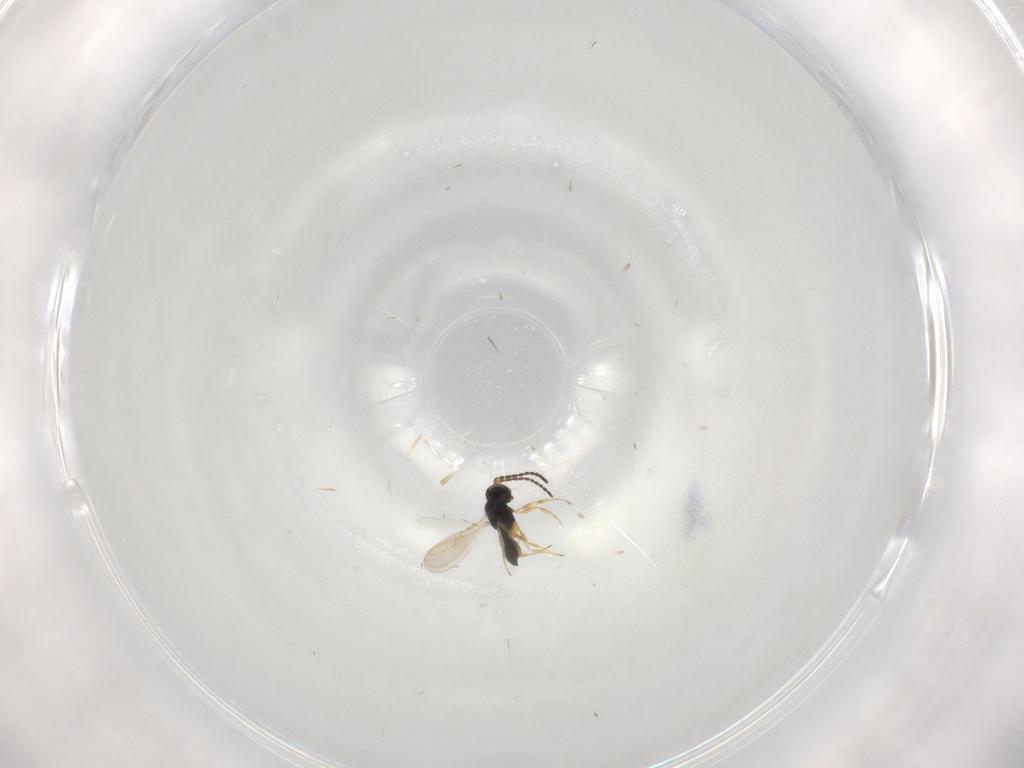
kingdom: Animalia
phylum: Arthropoda
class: Insecta
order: Hymenoptera
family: Scelionidae
